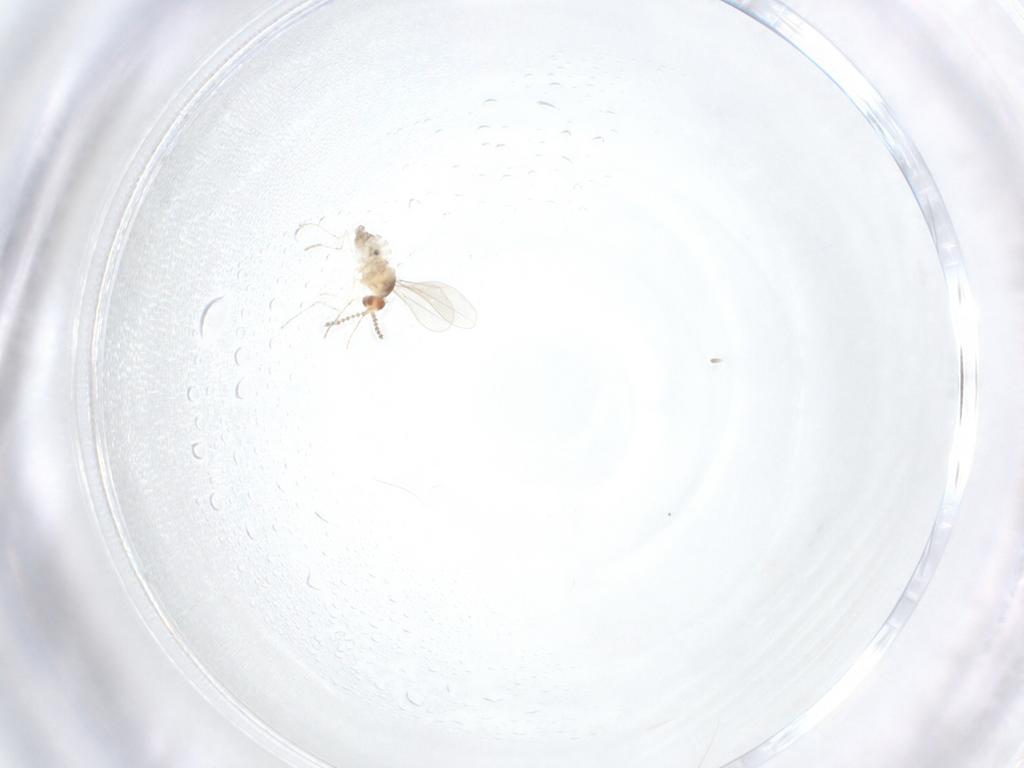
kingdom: Animalia
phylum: Arthropoda
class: Insecta
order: Diptera
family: Cecidomyiidae
